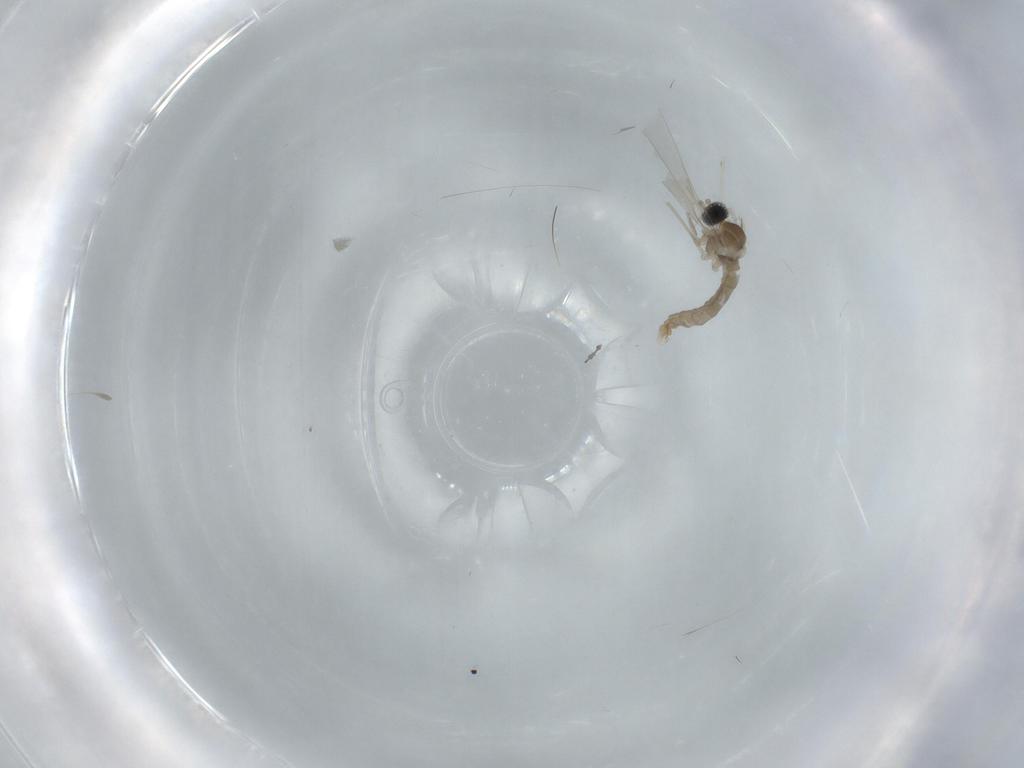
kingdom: Animalia
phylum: Arthropoda
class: Insecta
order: Diptera
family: Cecidomyiidae
